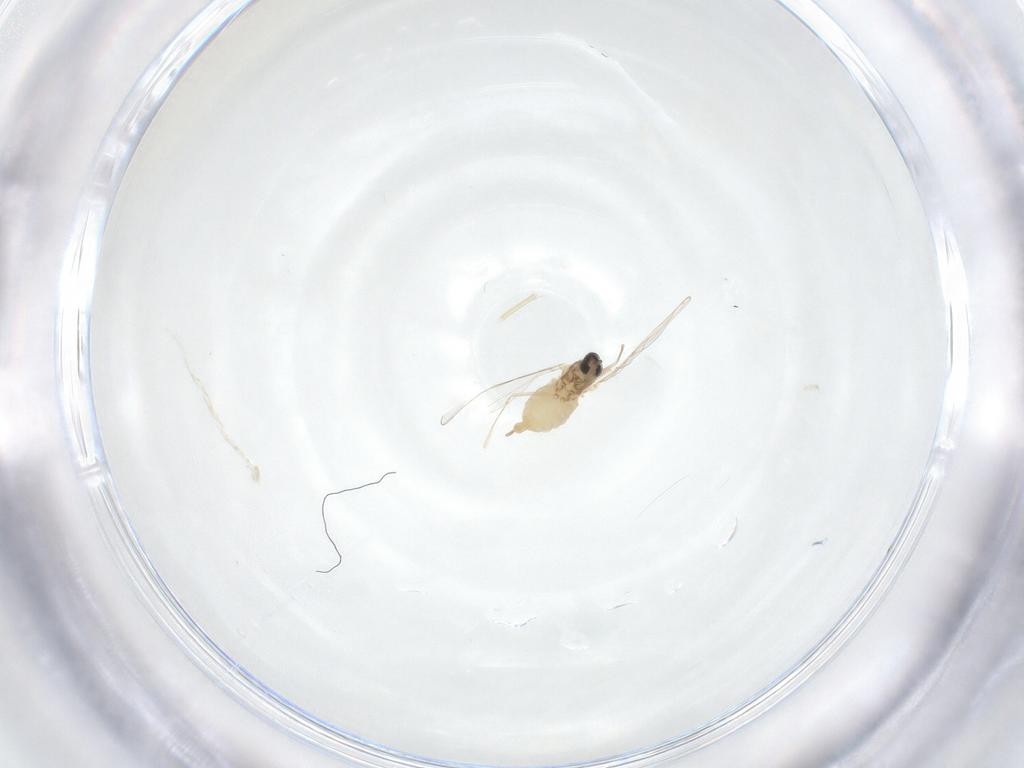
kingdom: Animalia
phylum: Arthropoda
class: Insecta
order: Diptera
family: Cecidomyiidae
